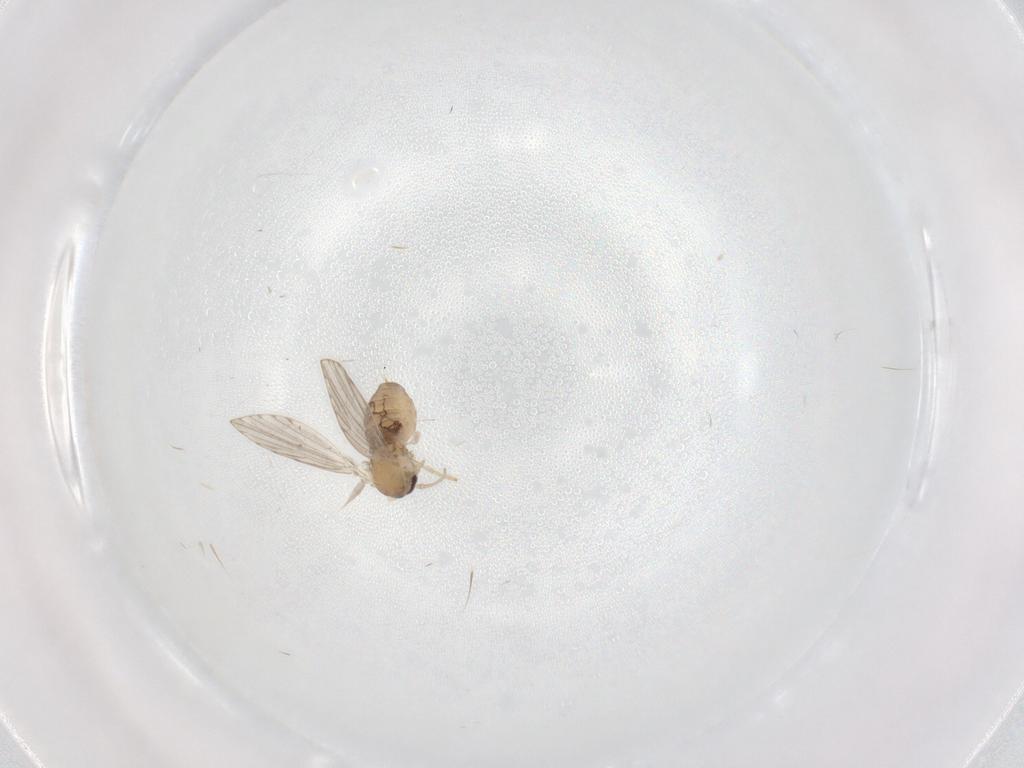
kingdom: Animalia
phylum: Arthropoda
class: Insecta
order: Diptera
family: Psychodidae
